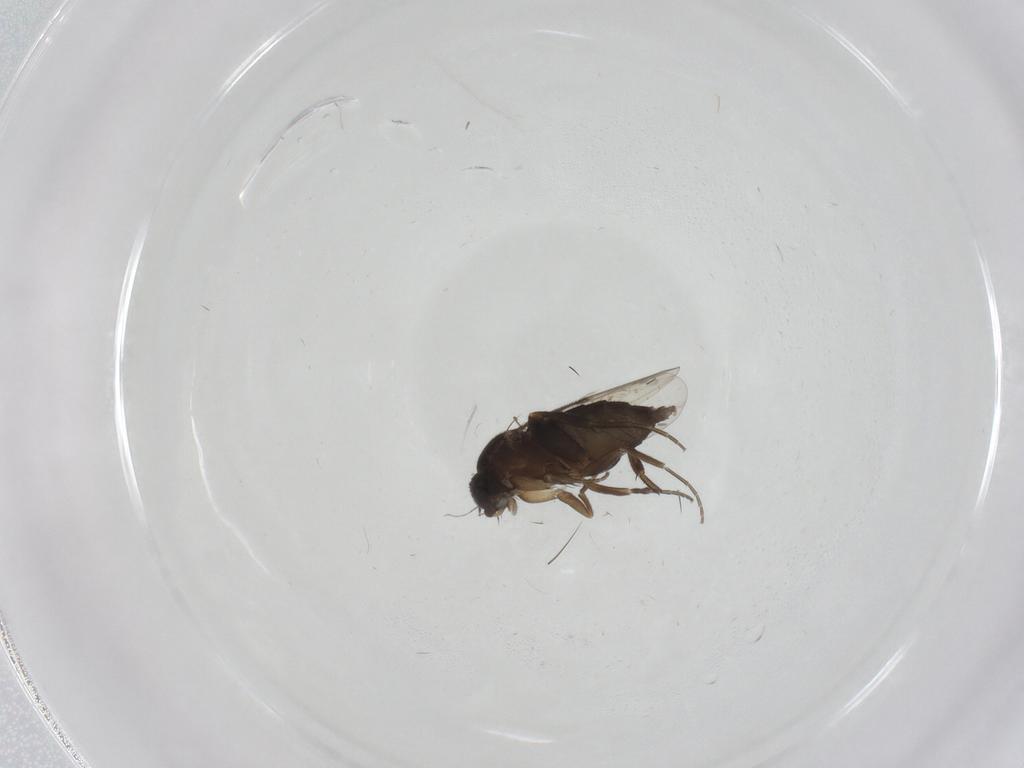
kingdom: Animalia
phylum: Arthropoda
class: Insecta
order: Diptera
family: Phoridae
